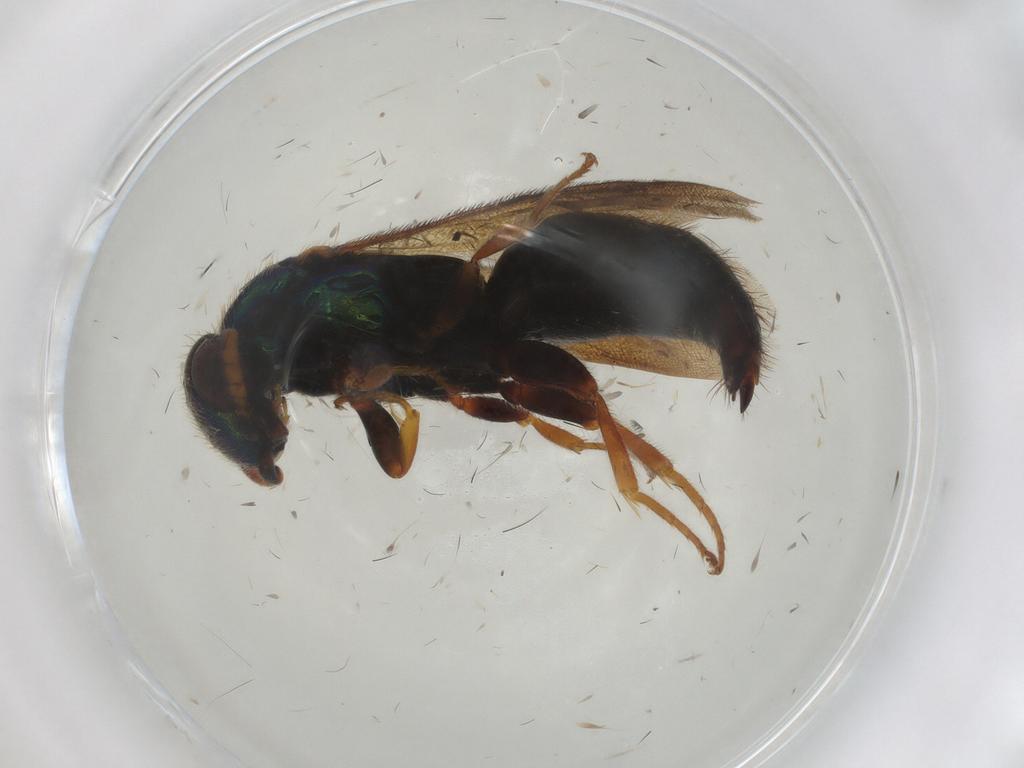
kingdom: Animalia
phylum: Arthropoda
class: Insecta
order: Hymenoptera
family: Bethylidae
